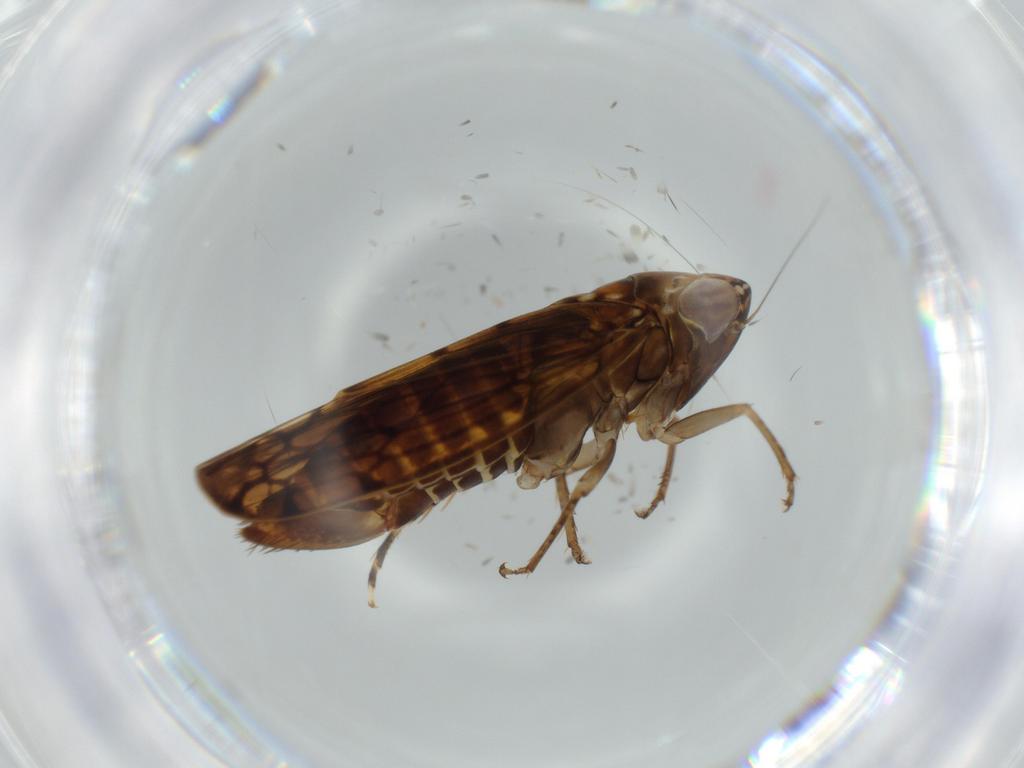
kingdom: Animalia
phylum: Arthropoda
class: Insecta
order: Hemiptera
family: Cicadellidae
